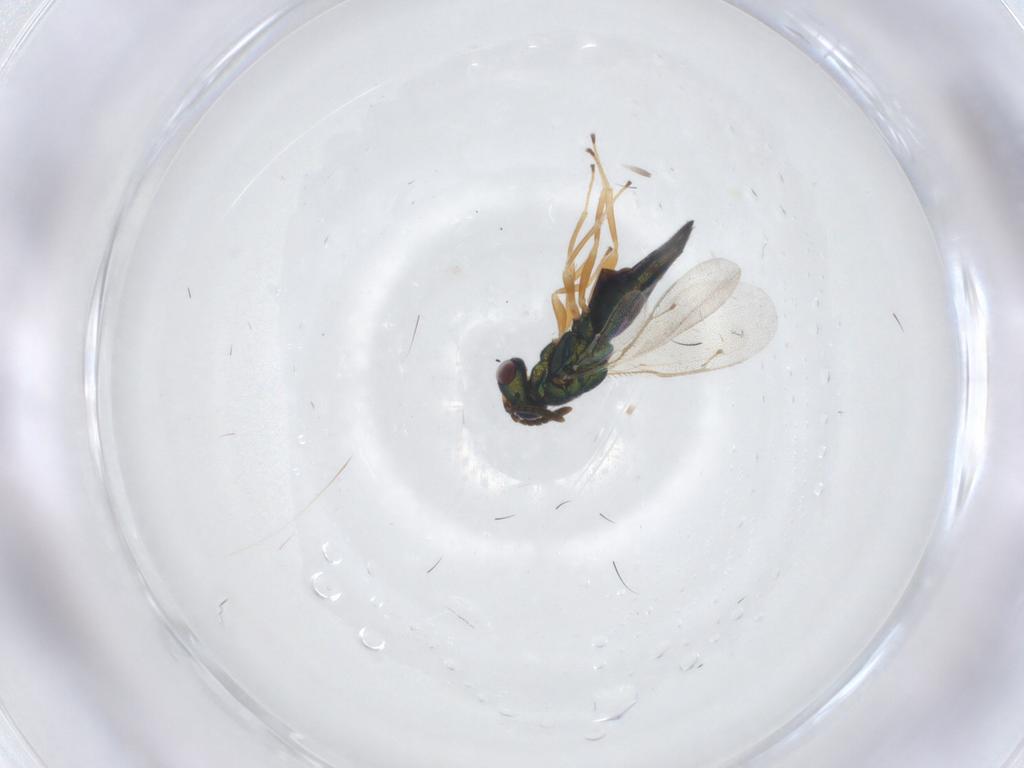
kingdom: Animalia
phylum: Arthropoda
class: Insecta
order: Hymenoptera
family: Pteromalidae
